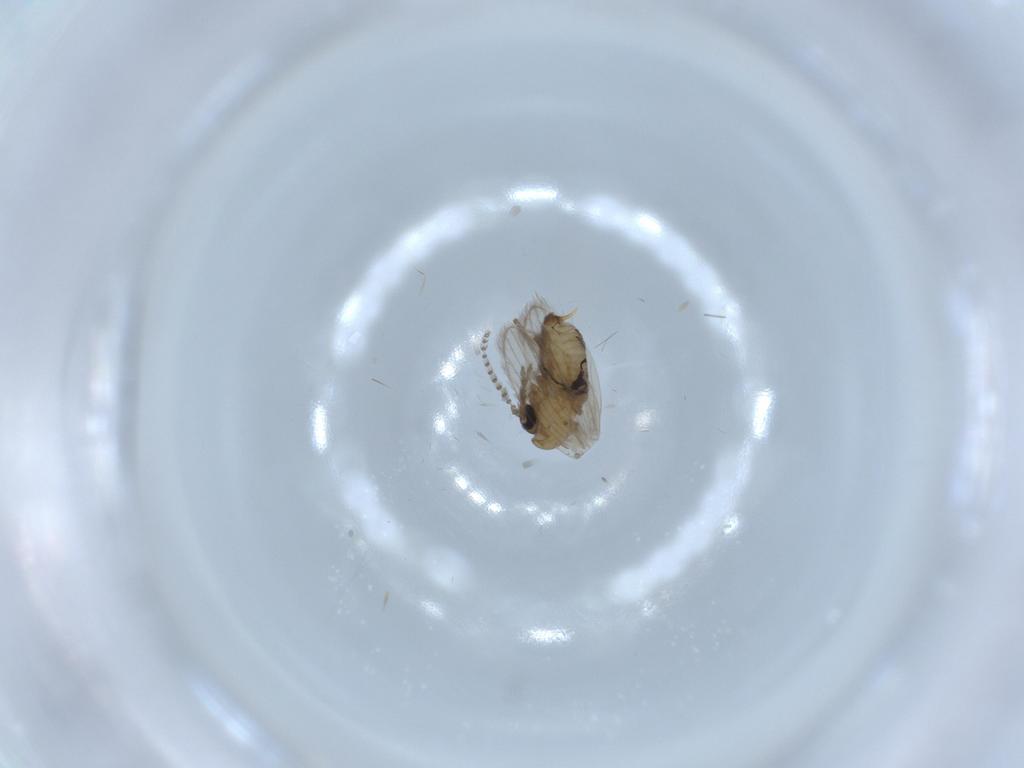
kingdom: Animalia
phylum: Arthropoda
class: Insecta
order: Diptera
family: Psychodidae
